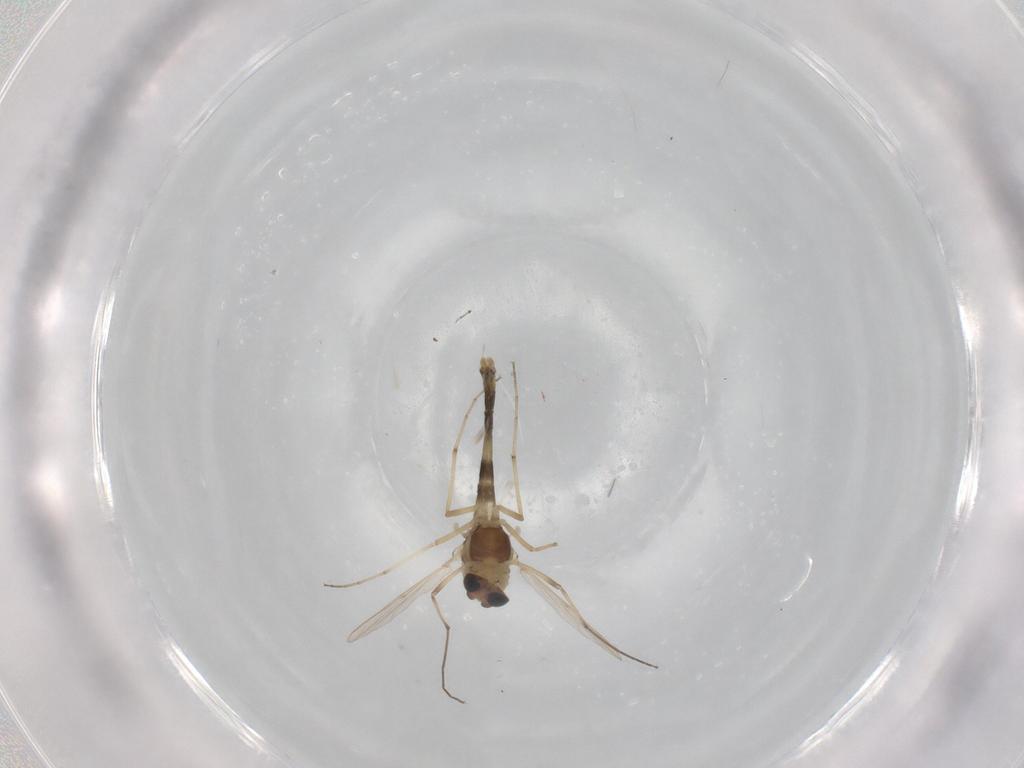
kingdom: Animalia
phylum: Arthropoda
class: Insecta
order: Diptera
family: Chironomidae
